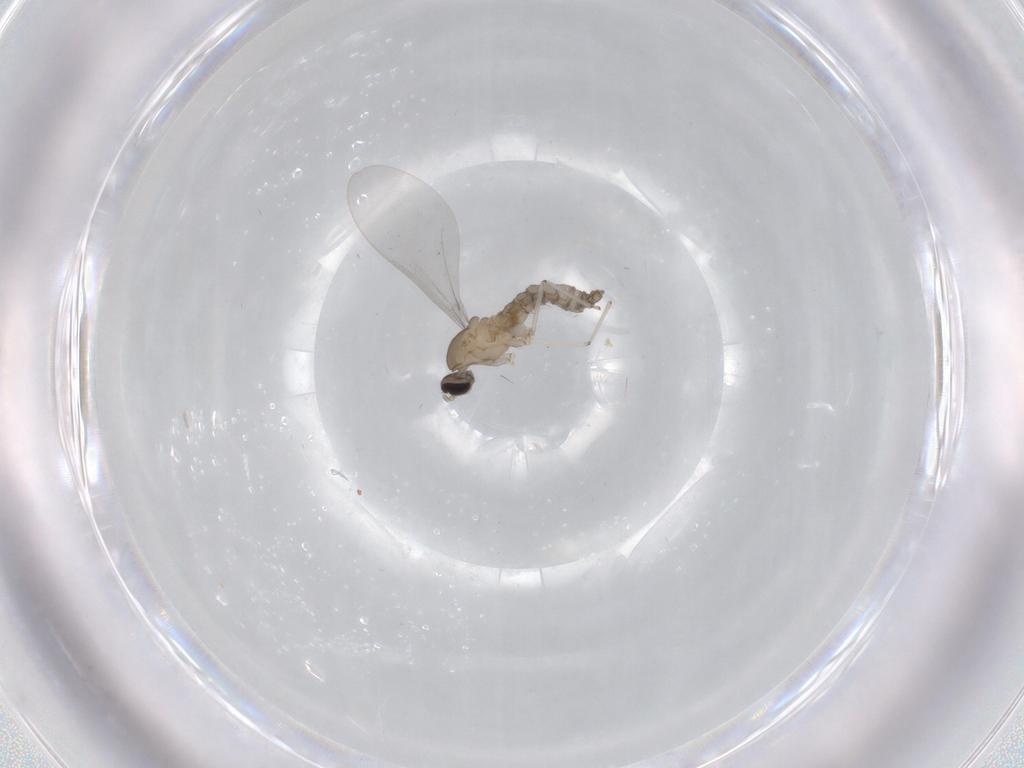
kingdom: Animalia
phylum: Arthropoda
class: Insecta
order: Diptera
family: Cecidomyiidae
